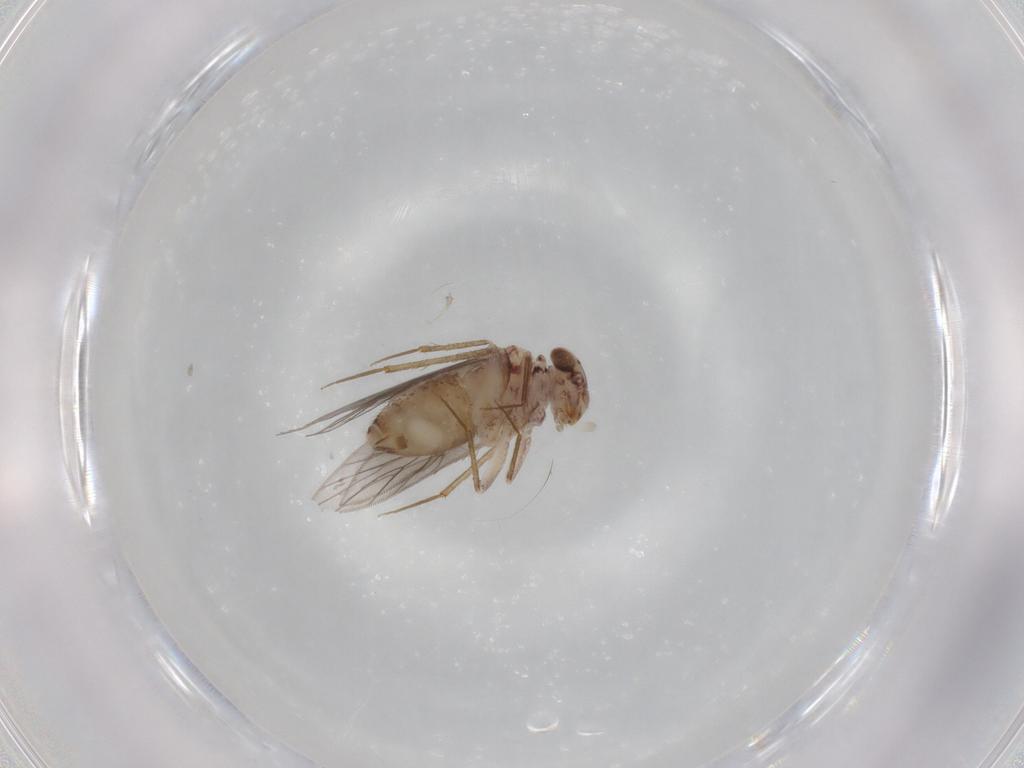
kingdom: Animalia
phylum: Arthropoda
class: Insecta
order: Psocodea
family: Lepidopsocidae
